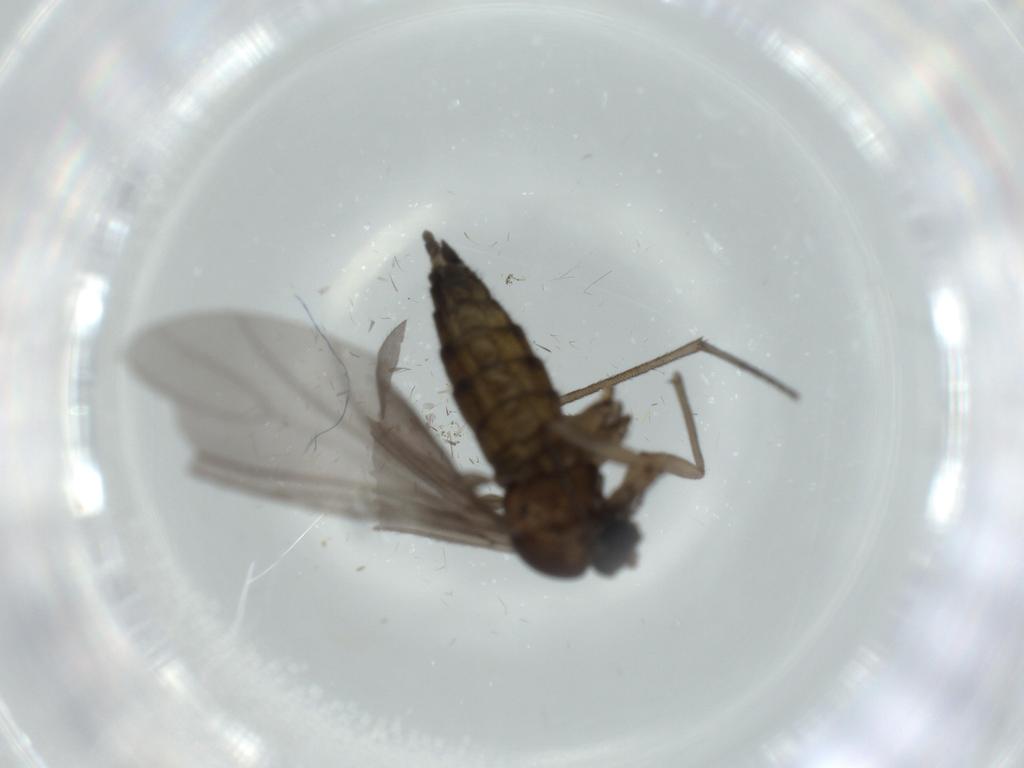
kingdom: Animalia
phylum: Arthropoda
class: Insecta
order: Diptera
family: Sciaridae
